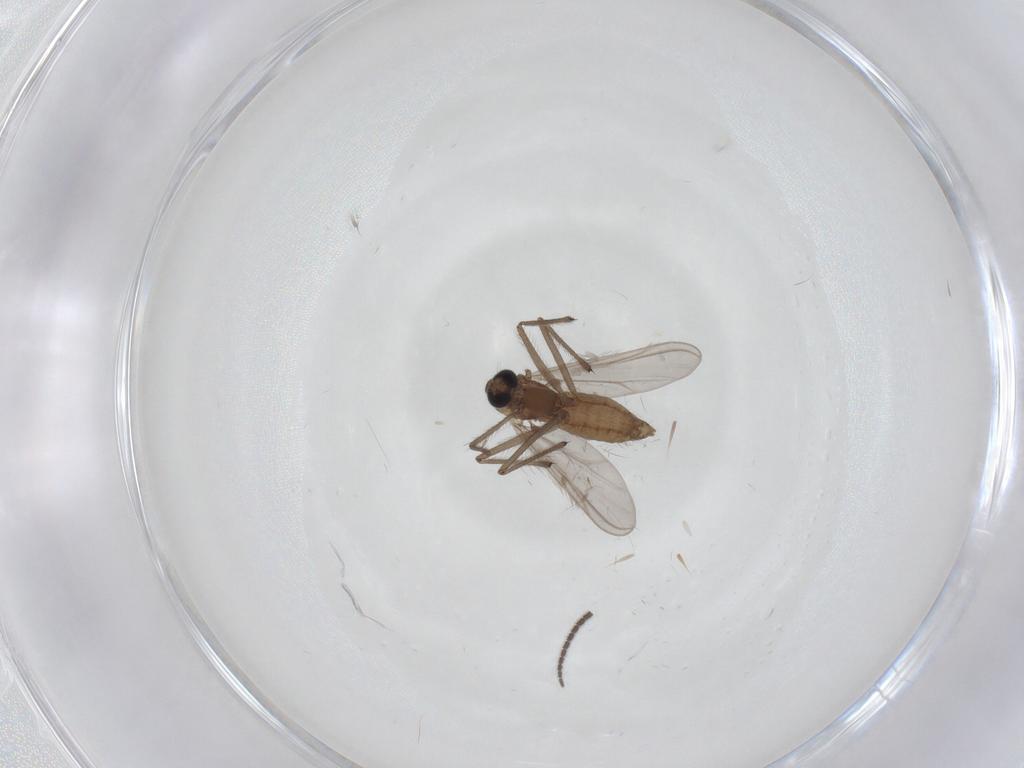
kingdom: Animalia
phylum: Arthropoda
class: Insecta
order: Diptera
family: Chironomidae
